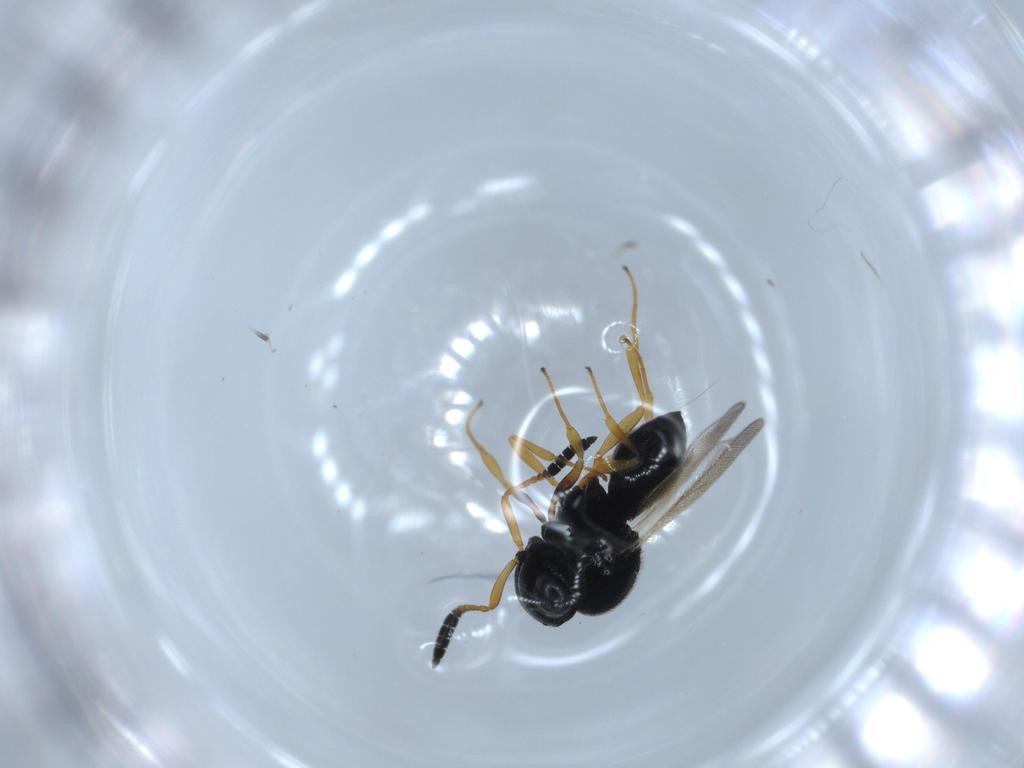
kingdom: Animalia
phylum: Arthropoda
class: Insecta
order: Hymenoptera
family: Scelionidae
